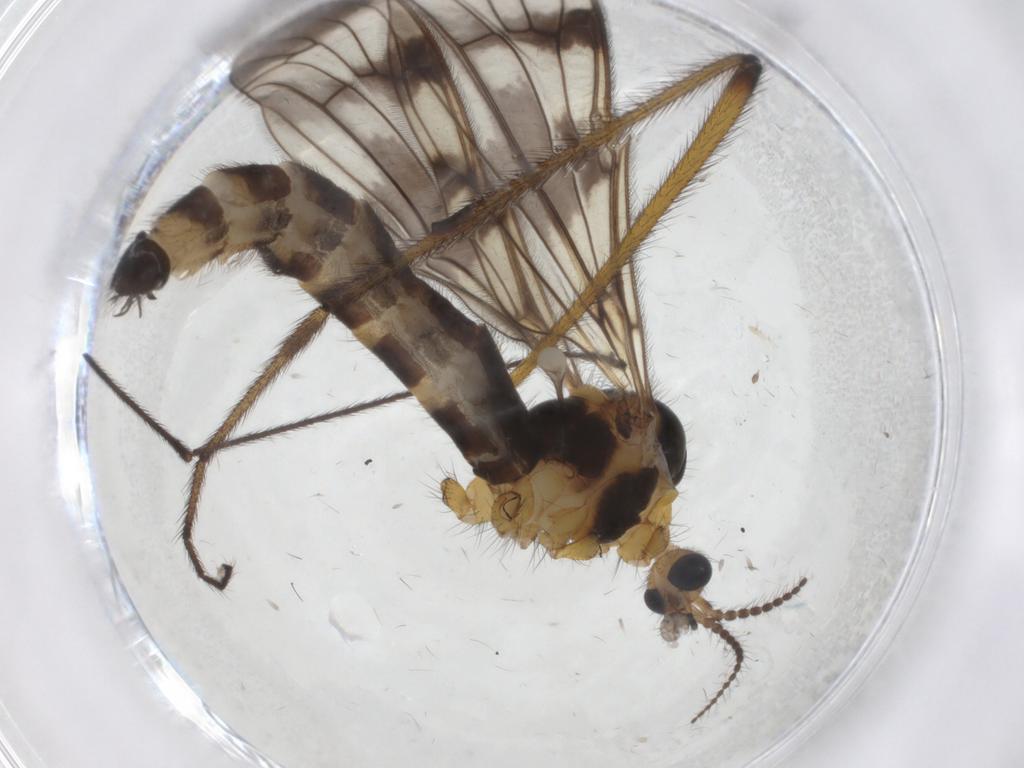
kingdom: Animalia
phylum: Arthropoda
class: Insecta
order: Diptera
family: Limoniidae
